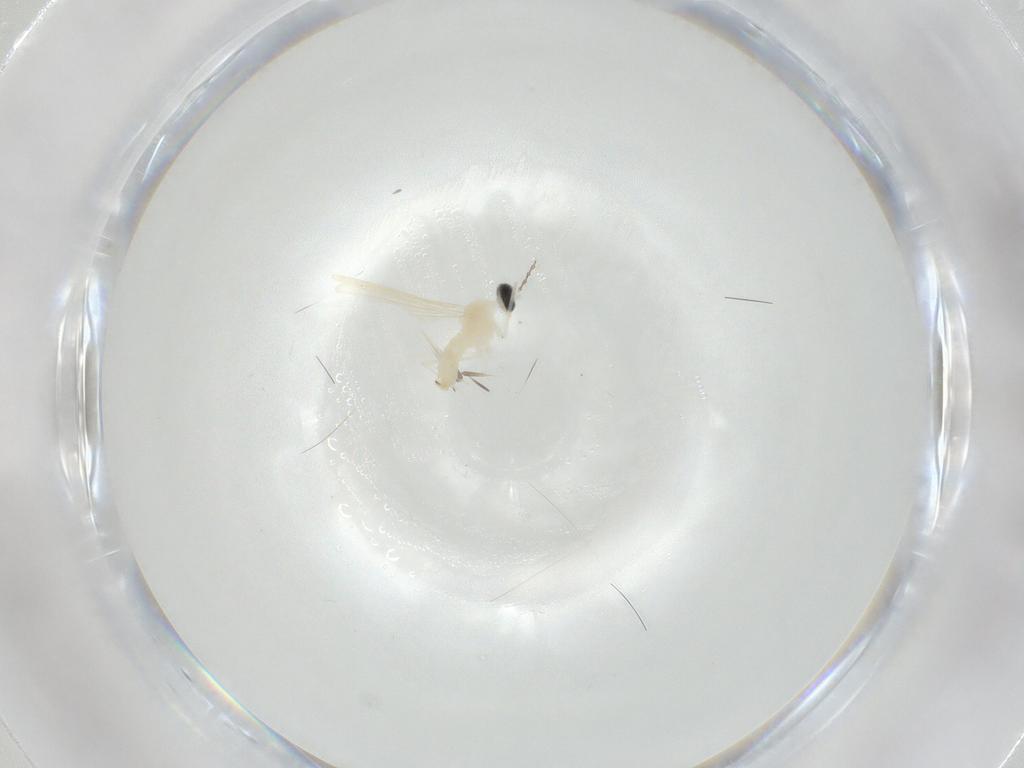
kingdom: Animalia
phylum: Arthropoda
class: Insecta
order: Diptera
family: Cecidomyiidae
